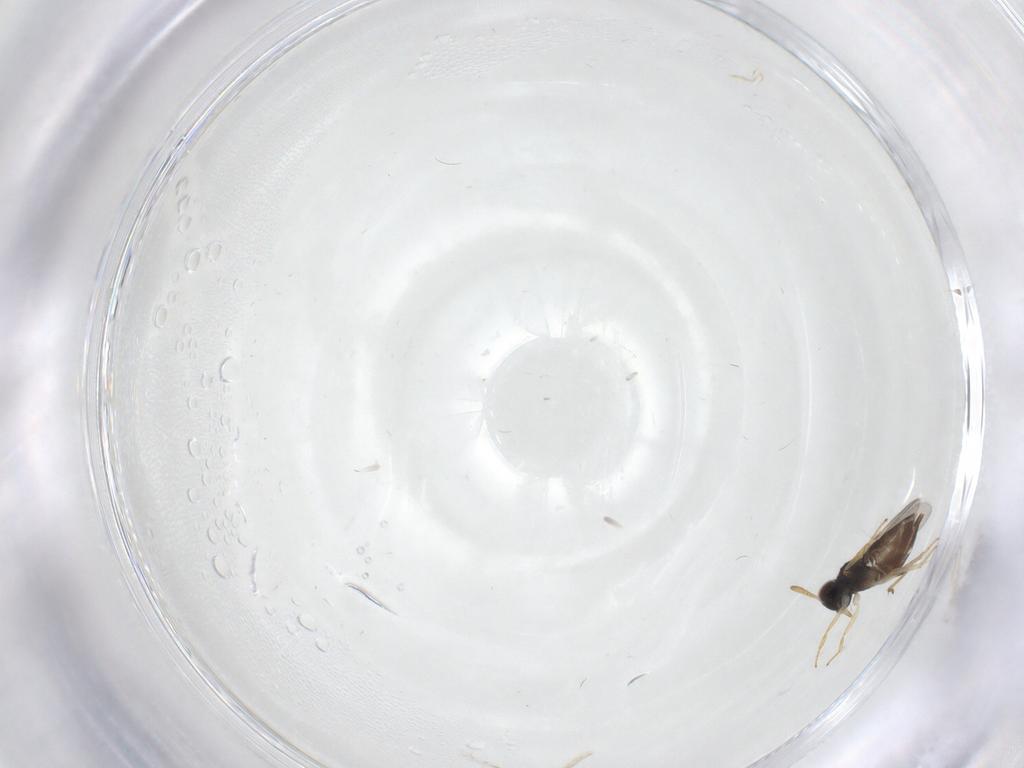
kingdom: Animalia
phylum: Arthropoda
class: Insecta
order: Hymenoptera
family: Encyrtidae
